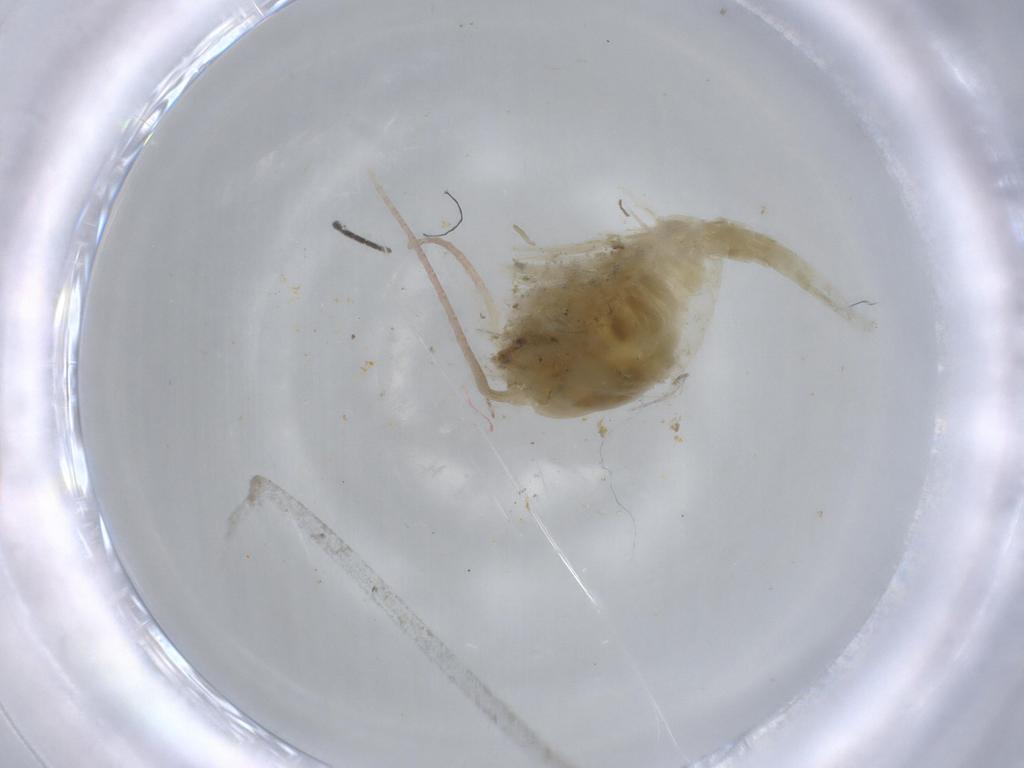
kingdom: Animalia
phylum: Arthropoda
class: Copepoda
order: Calanoida
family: Temoridae
